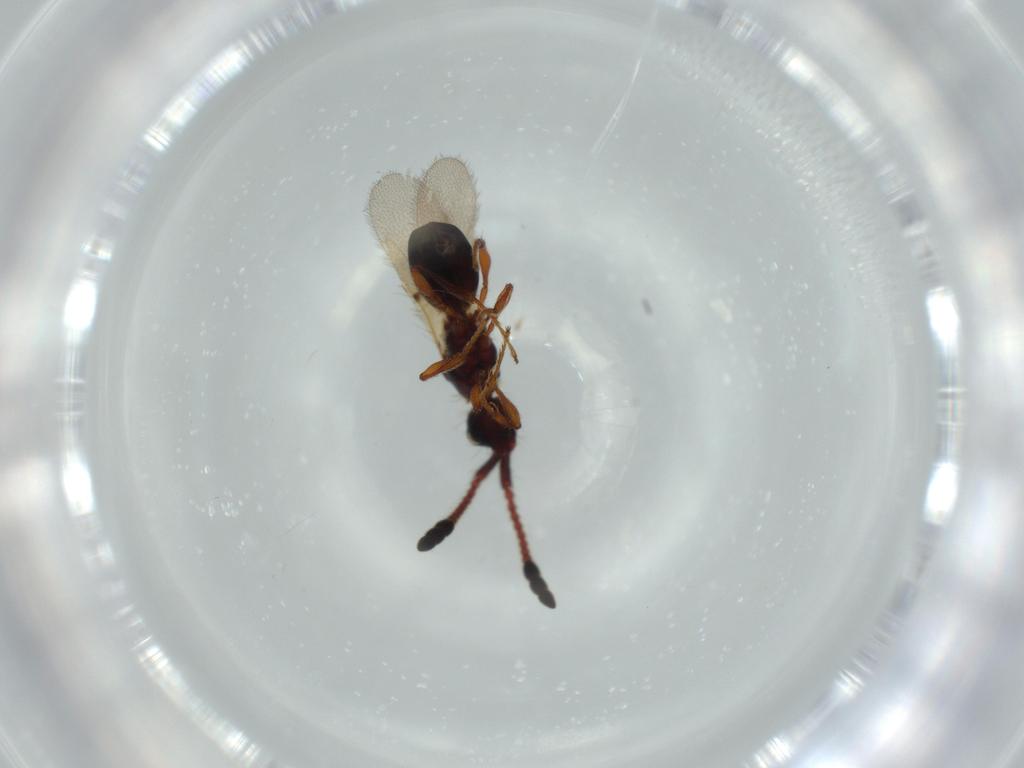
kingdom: Animalia
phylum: Arthropoda
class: Insecta
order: Hymenoptera
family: Diapriidae
